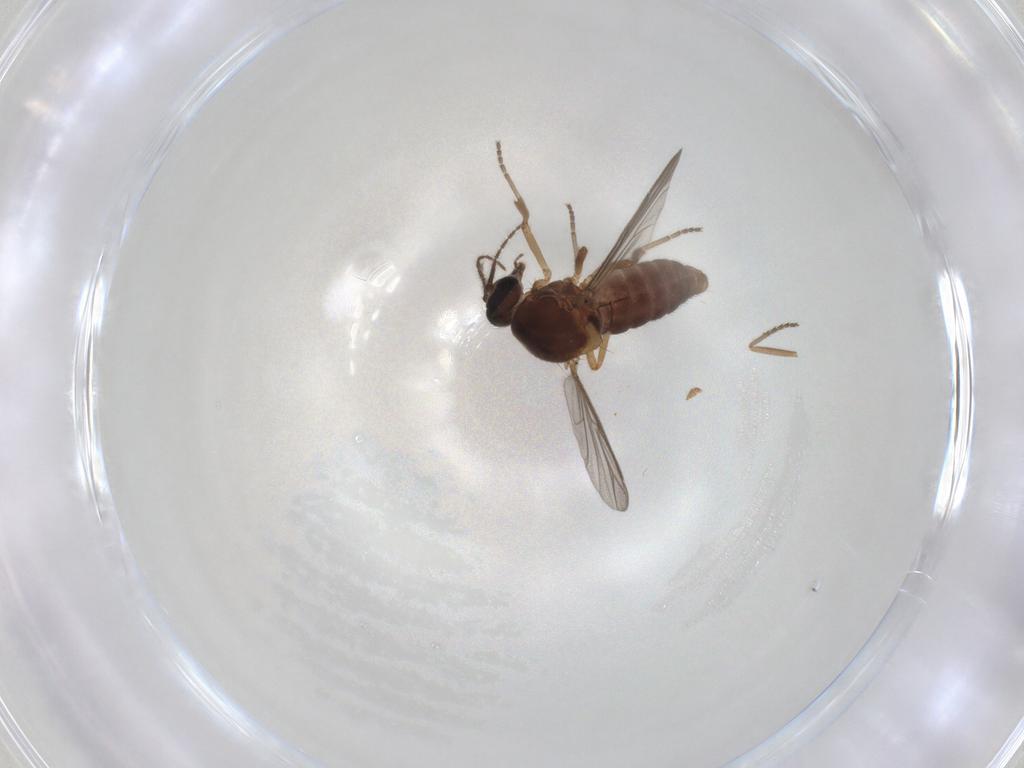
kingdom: Animalia
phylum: Arthropoda
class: Insecta
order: Diptera
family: Ceratopogonidae
